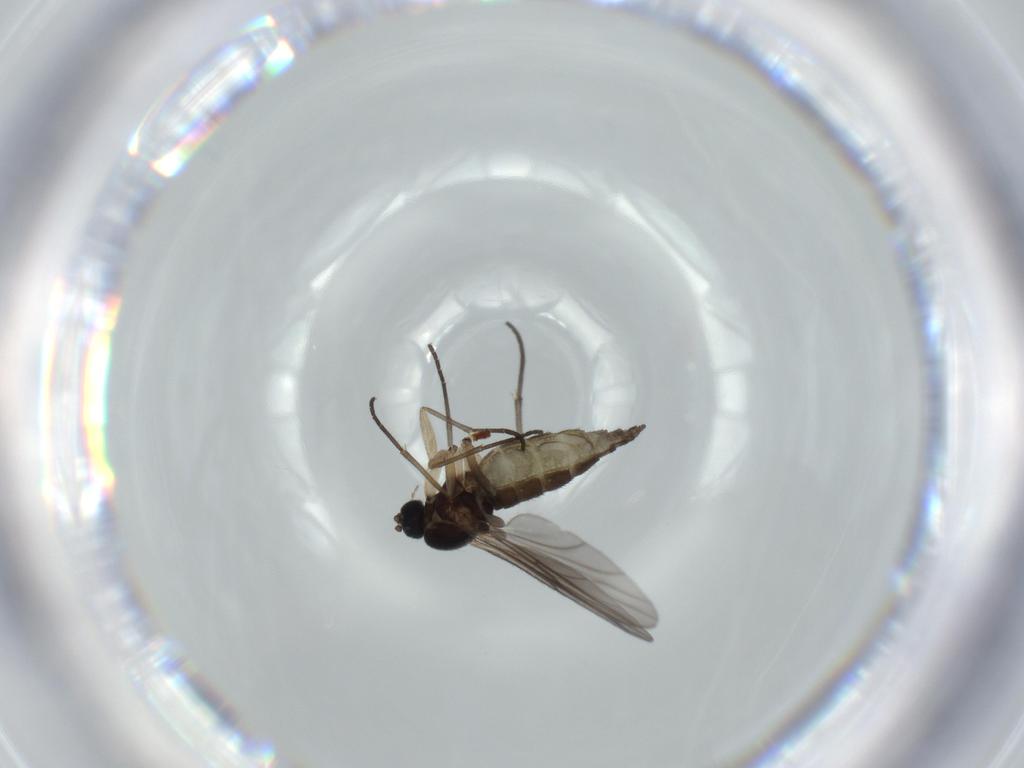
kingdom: Animalia
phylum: Arthropoda
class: Insecta
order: Diptera
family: Sciaridae
